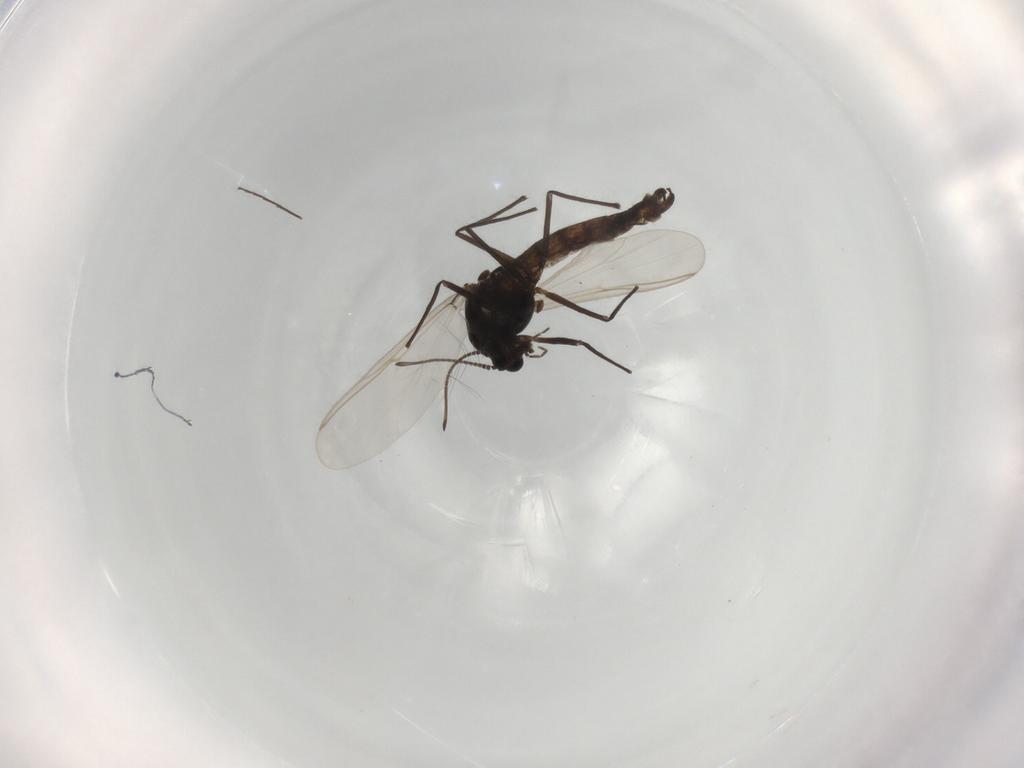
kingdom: Animalia
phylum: Arthropoda
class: Insecta
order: Diptera
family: Chironomidae
